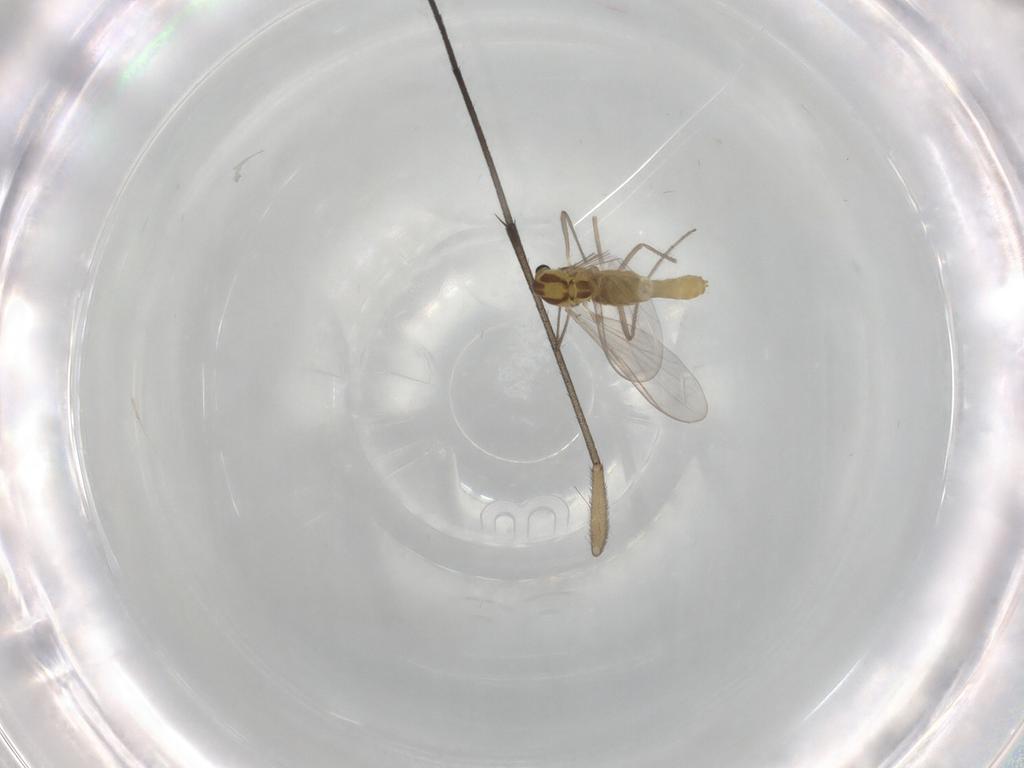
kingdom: Animalia
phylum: Arthropoda
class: Insecta
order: Diptera
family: Chironomidae
